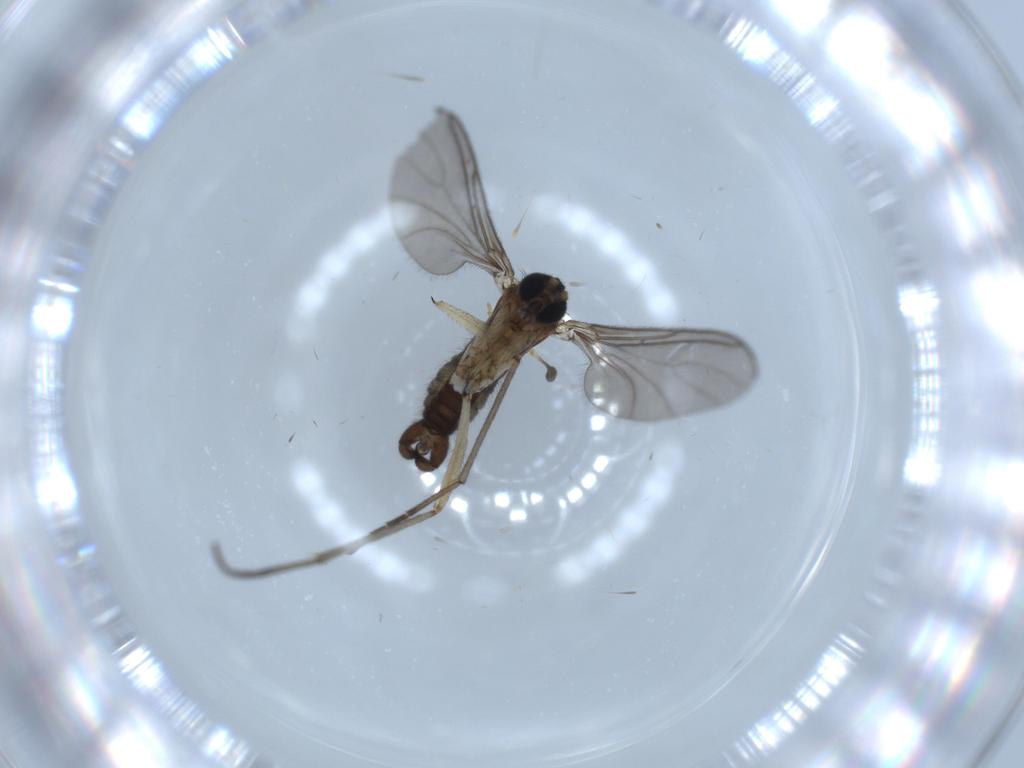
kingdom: Animalia
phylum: Arthropoda
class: Insecta
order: Diptera
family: Sciaridae
